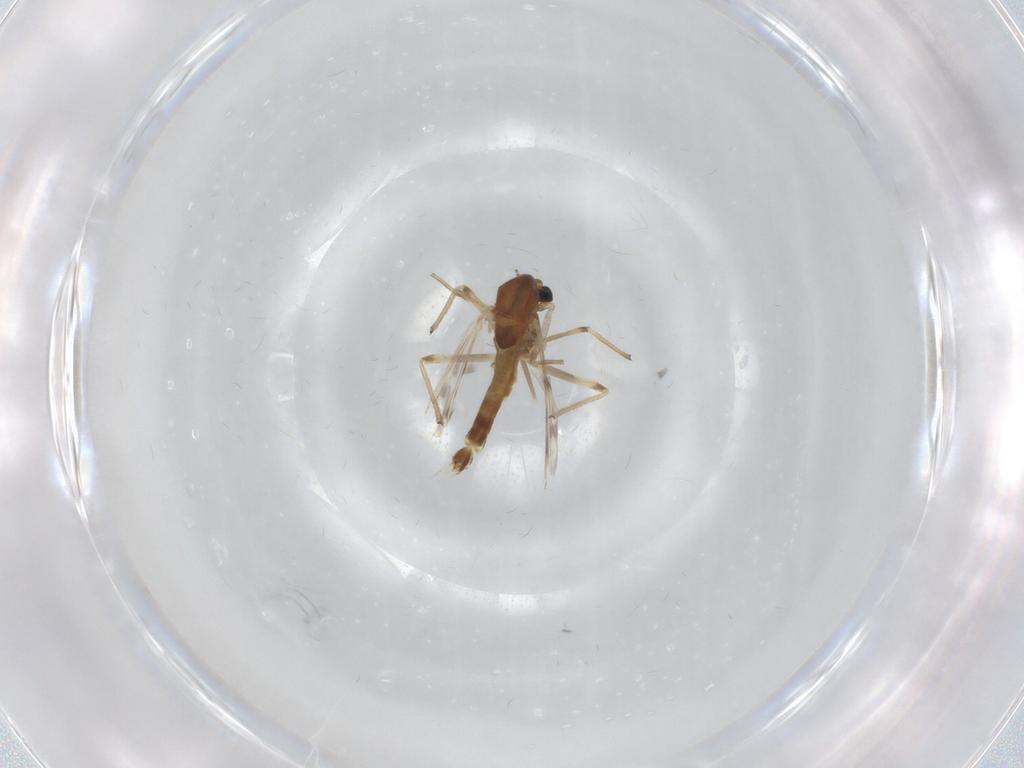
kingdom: Animalia
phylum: Arthropoda
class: Insecta
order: Diptera
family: Chironomidae
